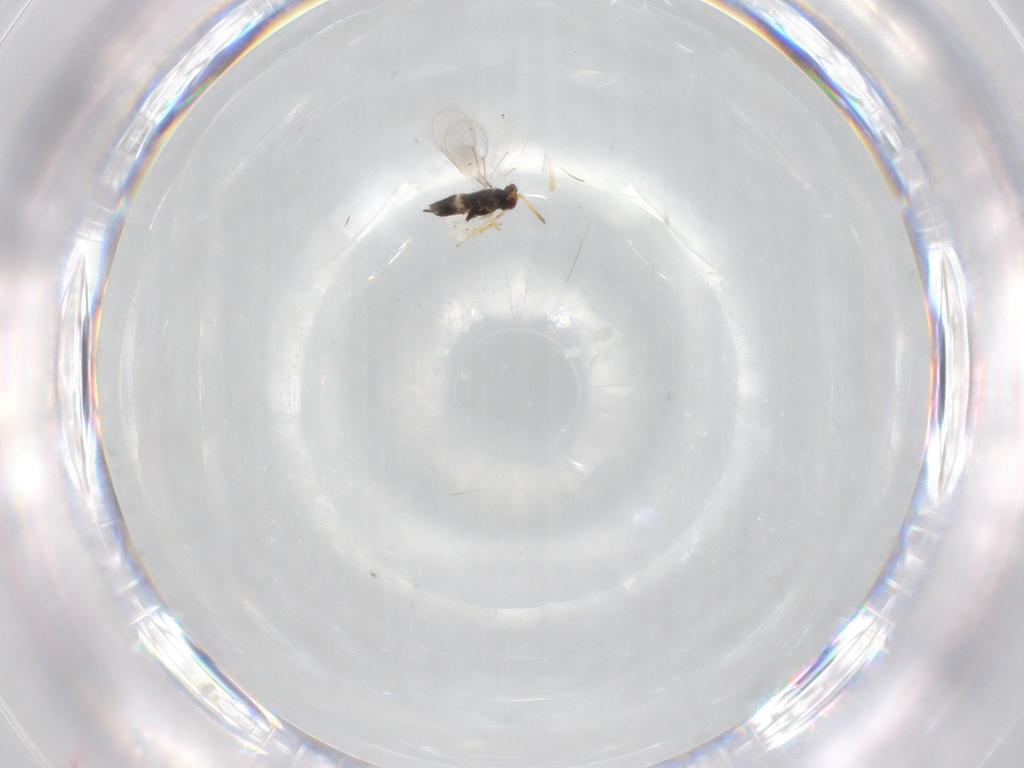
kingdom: Animalia
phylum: Arthropoda
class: Insecta
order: Hymenoptera
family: Aphelinidae
